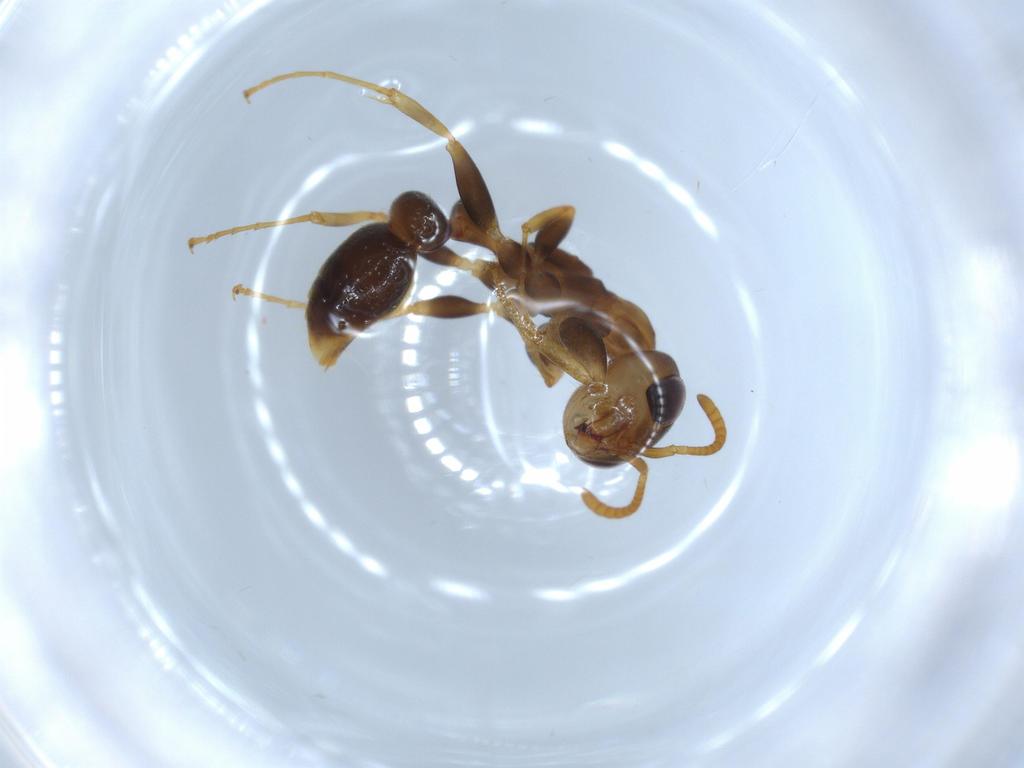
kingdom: Animalia
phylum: Arthropoda
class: Insecta
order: Hymenoptera
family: Formicidae
